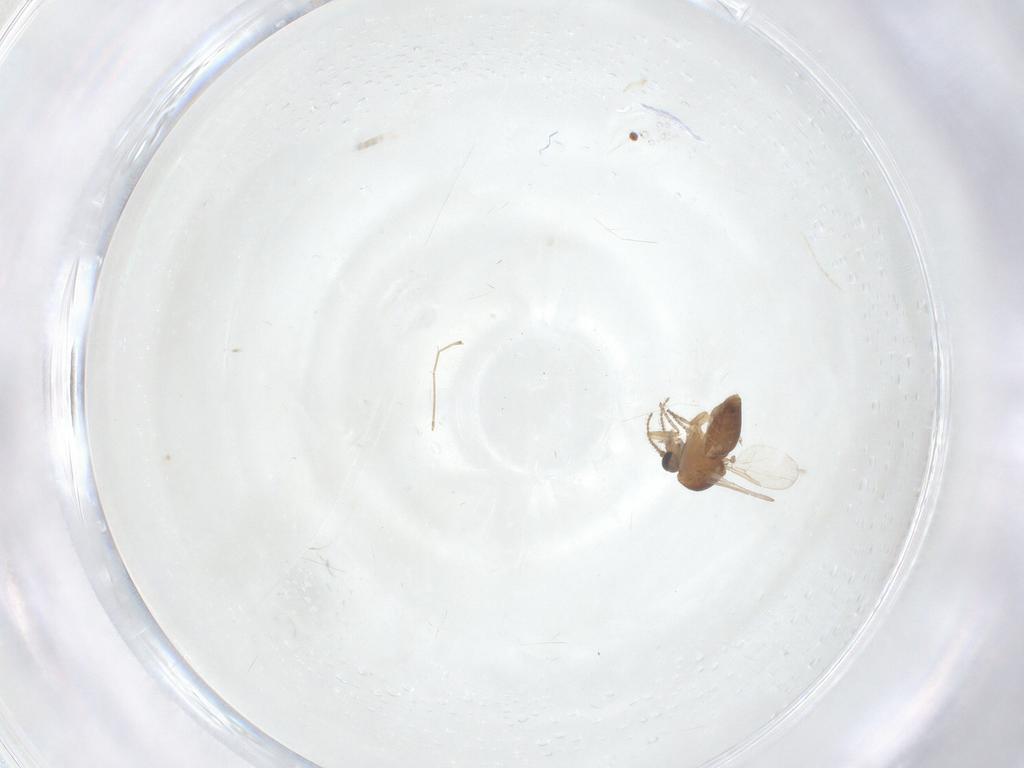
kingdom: Animalia
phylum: Arthropoda
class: Insecta
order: Diptera
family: Ceratopogonidae
